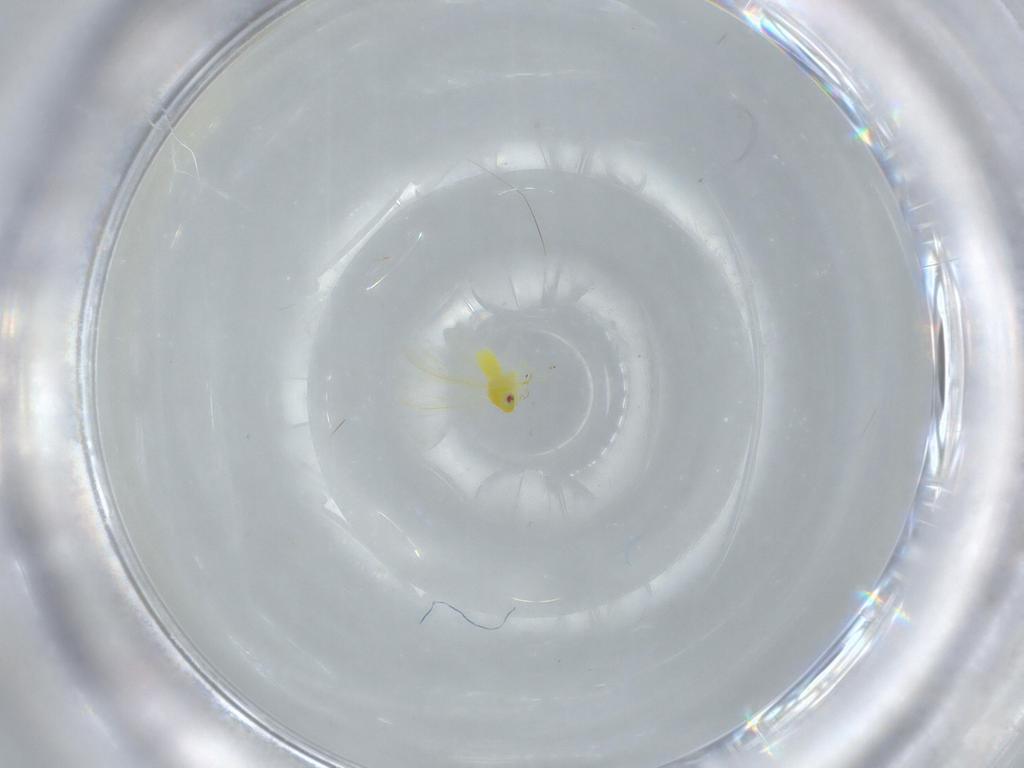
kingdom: Animalia
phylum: Arthropoda
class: Insecta
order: Hemiptera
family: Aleyrodidae
